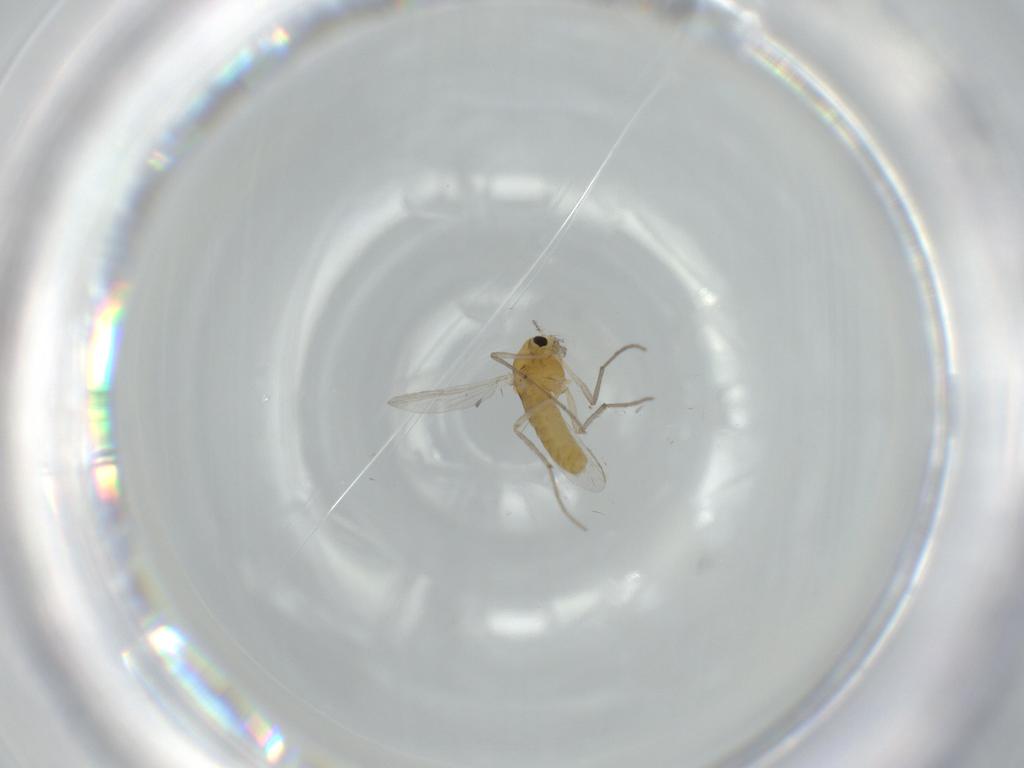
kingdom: Animalia
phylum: Arthropoda
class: Insecta
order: Diptera
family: Chironomidae
